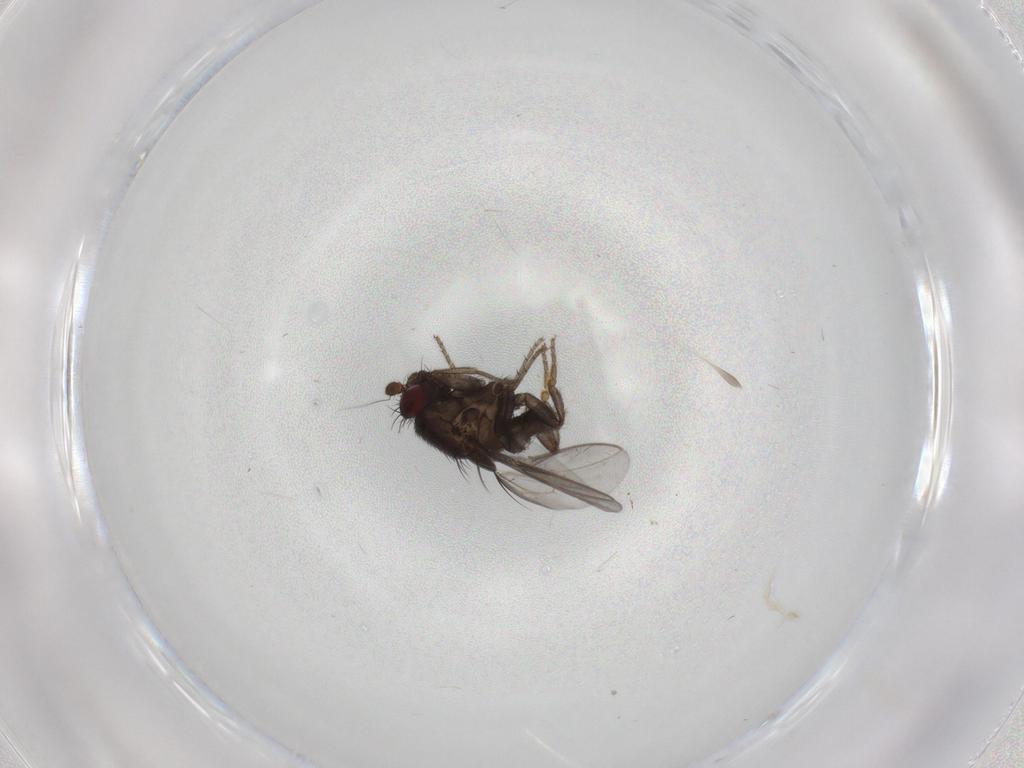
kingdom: Animalia
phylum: Arthropoda
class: Insecta
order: Diptera
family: Sphaeroceridae
